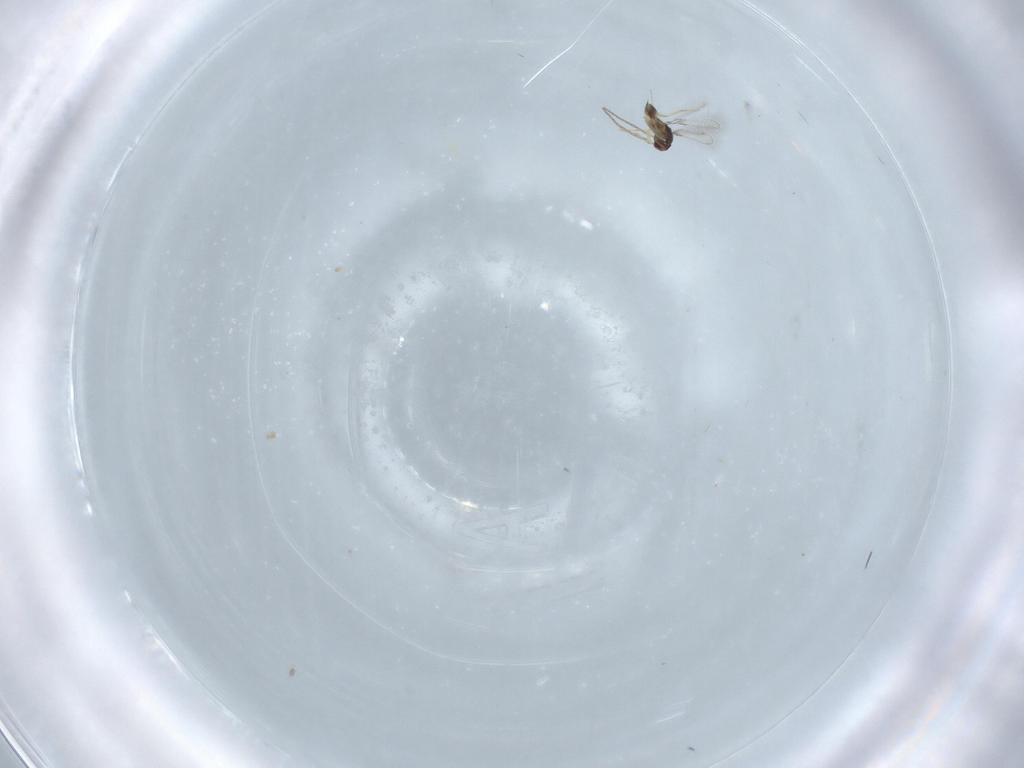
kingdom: Animalia
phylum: Arthropoda
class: Insecta
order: Hymenoptera
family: Mymaridae
